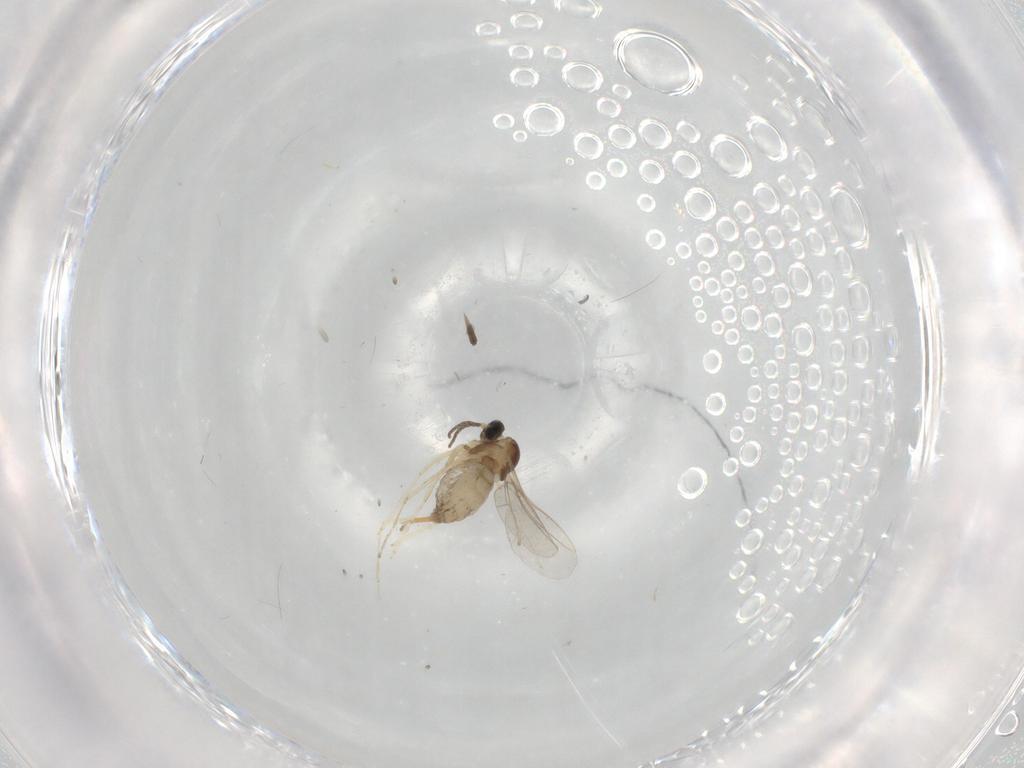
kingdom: Animalia
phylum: Arthropoda
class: Insecta
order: Diptera
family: Cecidomyiidae
